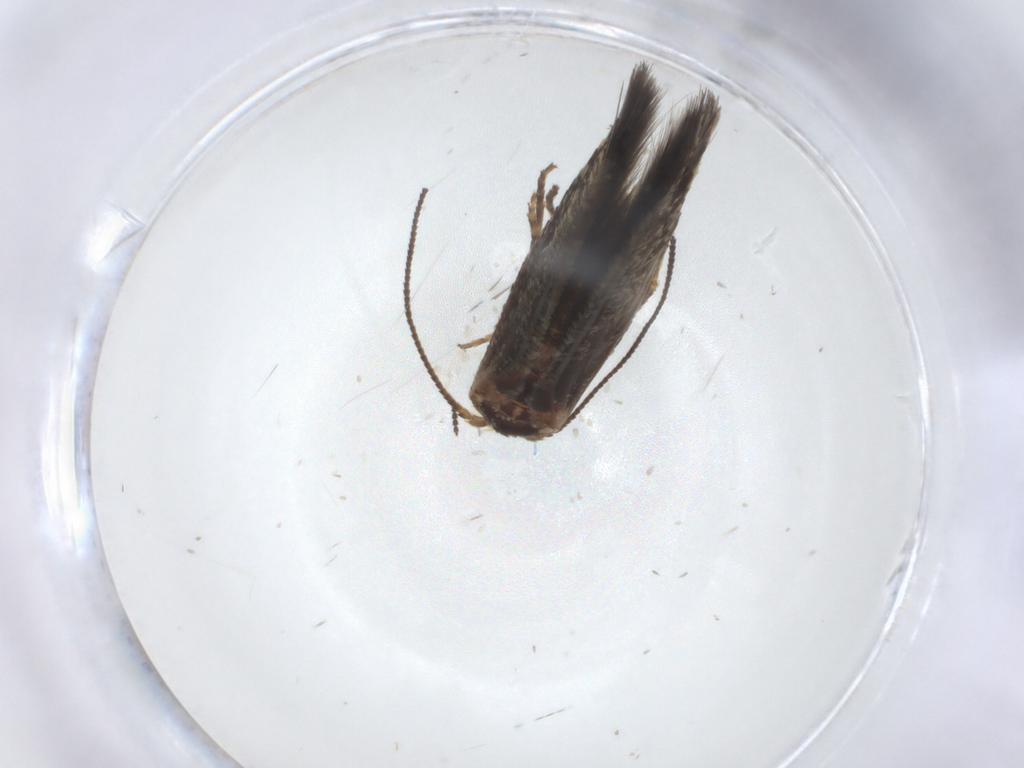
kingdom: Animalia
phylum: Arthropoda
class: Insecta
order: Lepidoptera
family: Nepticulidae
